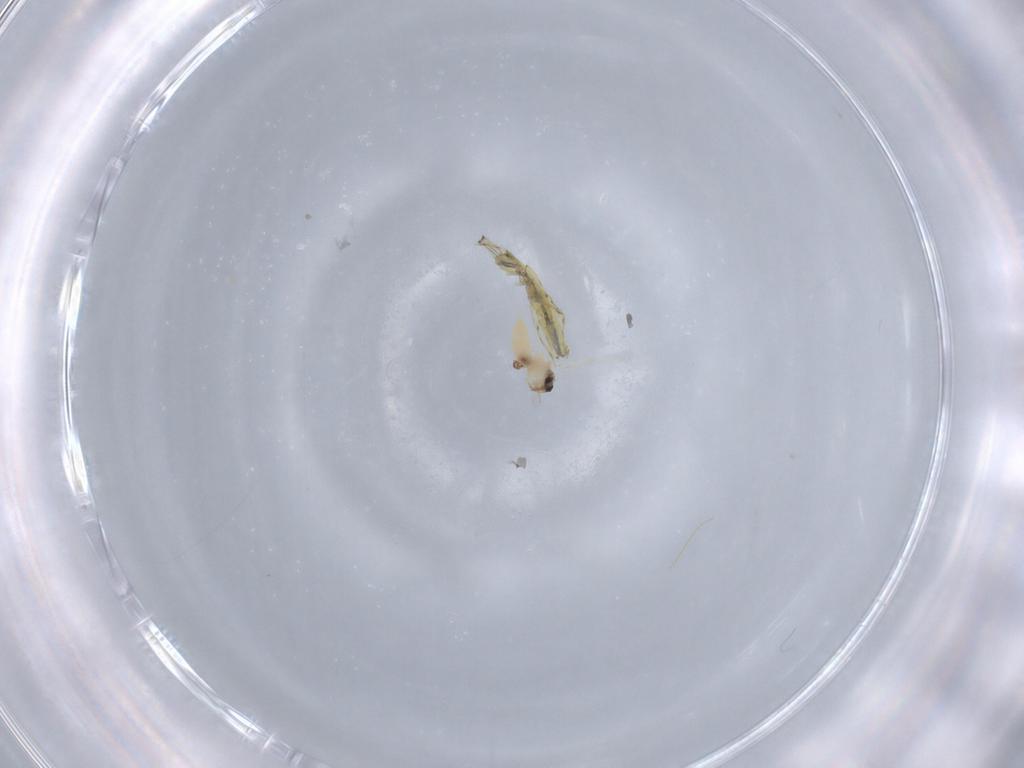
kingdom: Animalia
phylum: Arthropoda
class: Insecta
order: Diptera
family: Cecidomyiidae
